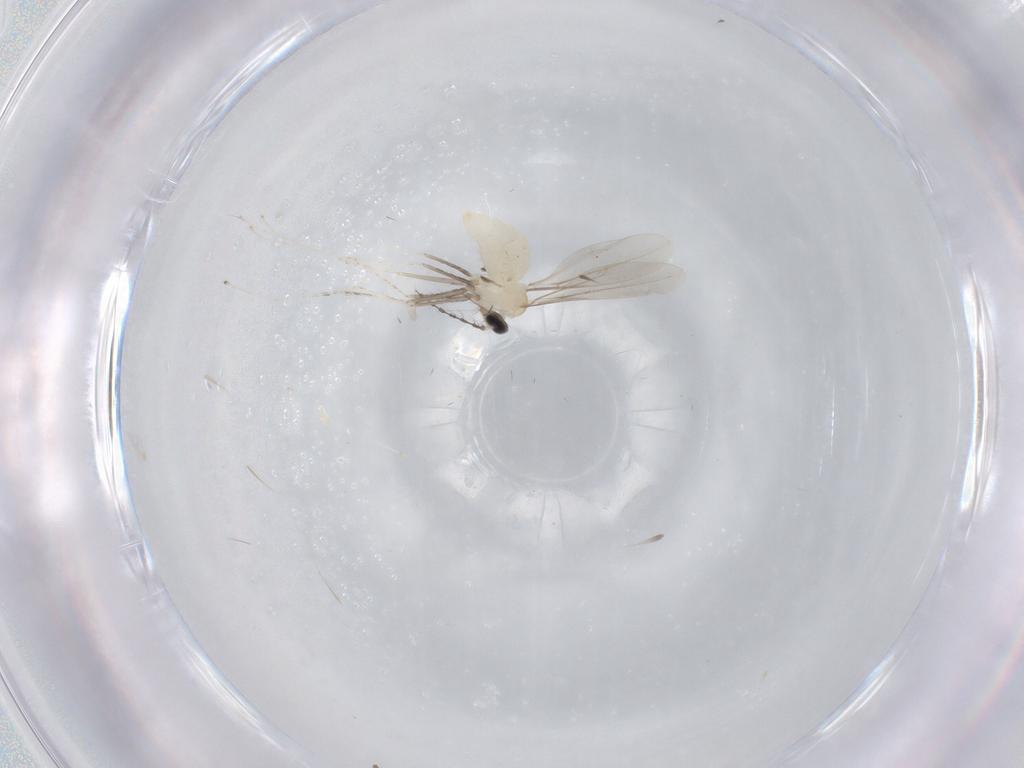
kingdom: Animalia
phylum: Arthropoda
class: Insecta
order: Diptera
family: Cecidomyiidae
